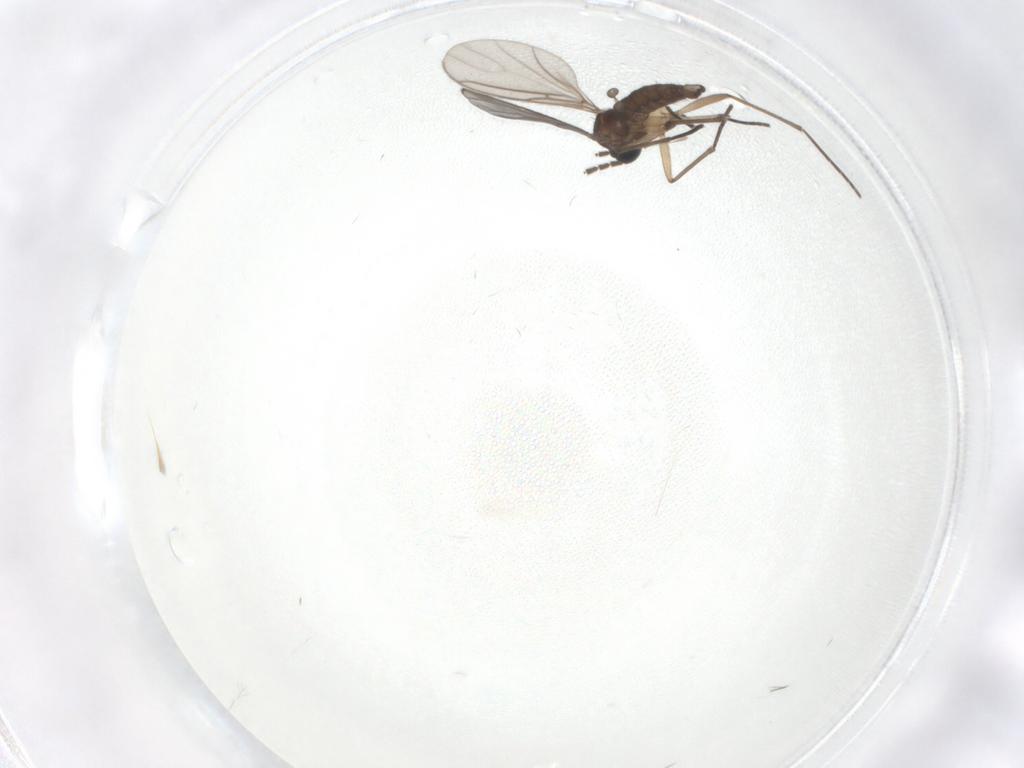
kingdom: Animalia
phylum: Arthropoda
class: Insecta
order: Diptera
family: Sciaridae
